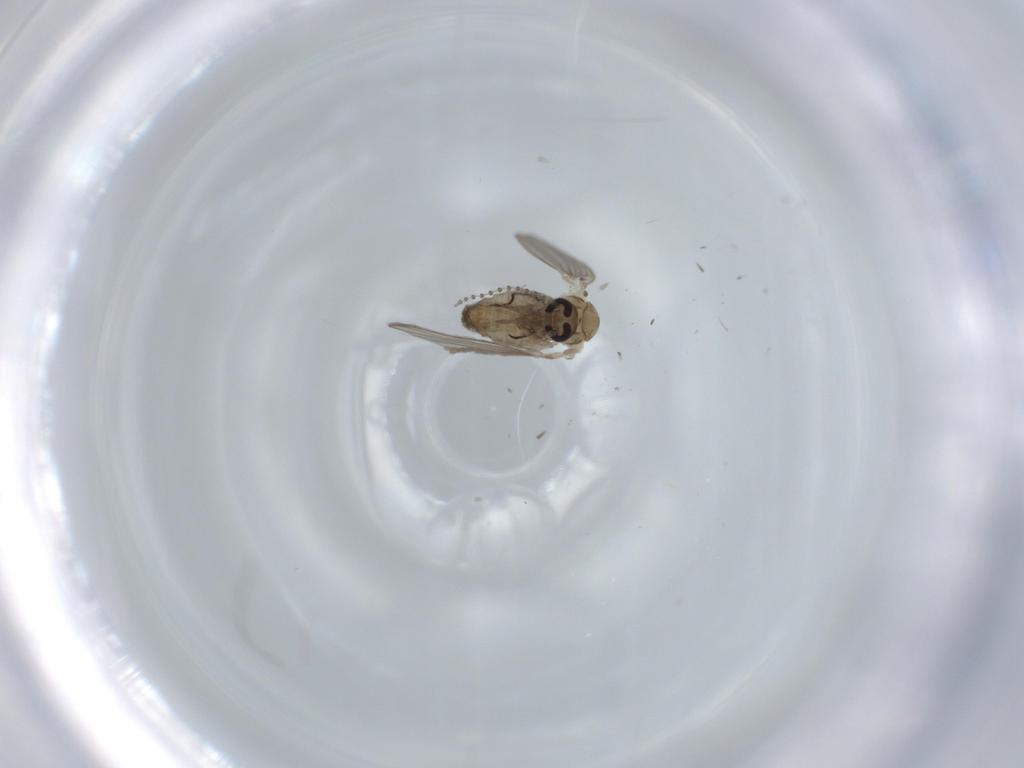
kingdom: Animalia
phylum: Arthropoda
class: Insecta
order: Diptera
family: Psychodidae
